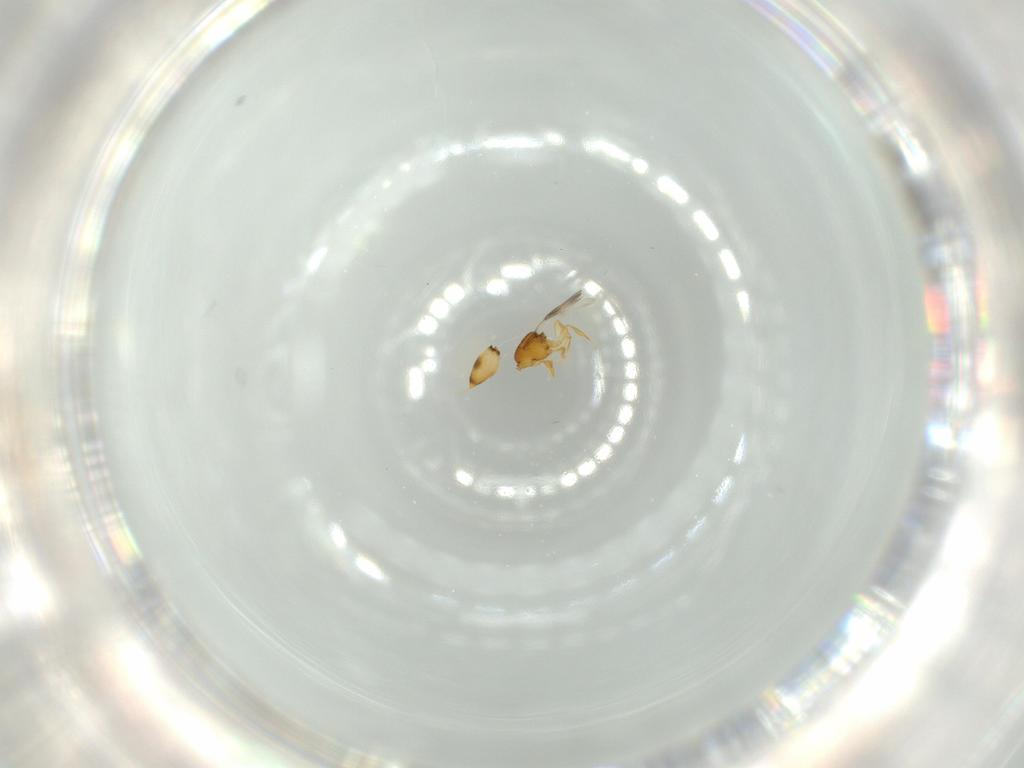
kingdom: Animalia
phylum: Arthropoda
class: Insecta
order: Hymenoptera
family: Ceraphronidae
